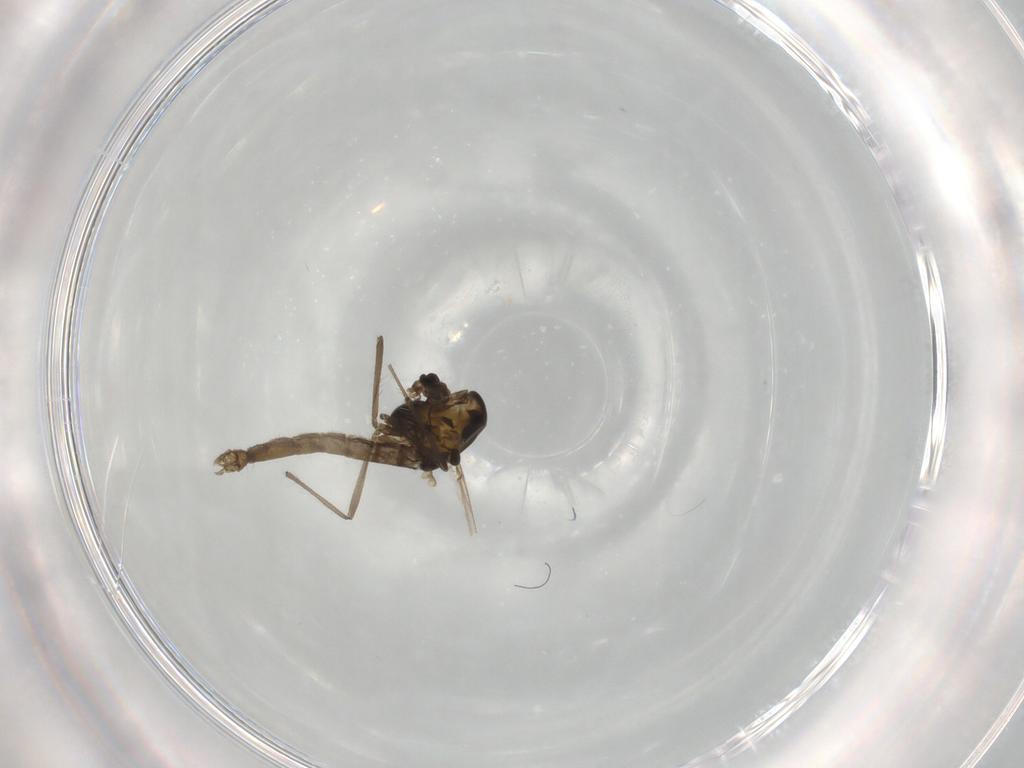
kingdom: Animalia
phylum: Arthropoda
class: Insecta
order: Diptera
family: Chironomidae
